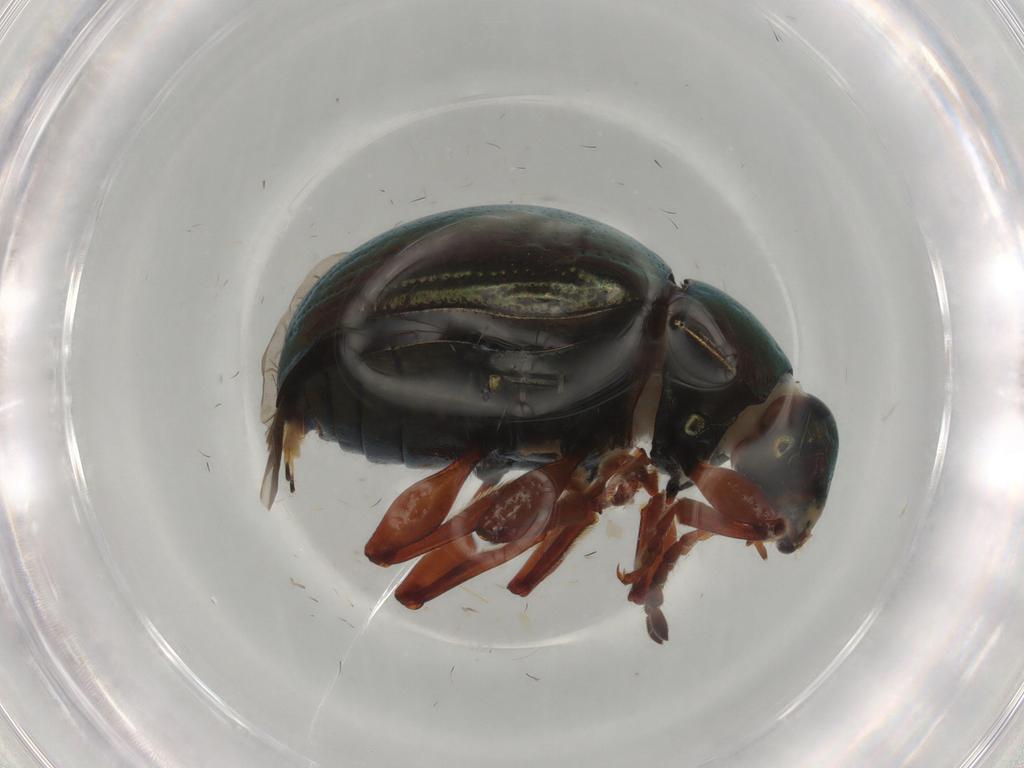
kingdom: Animalia
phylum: Arthropoda
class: Insecta
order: Coleoptera
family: Chrysomelidae
